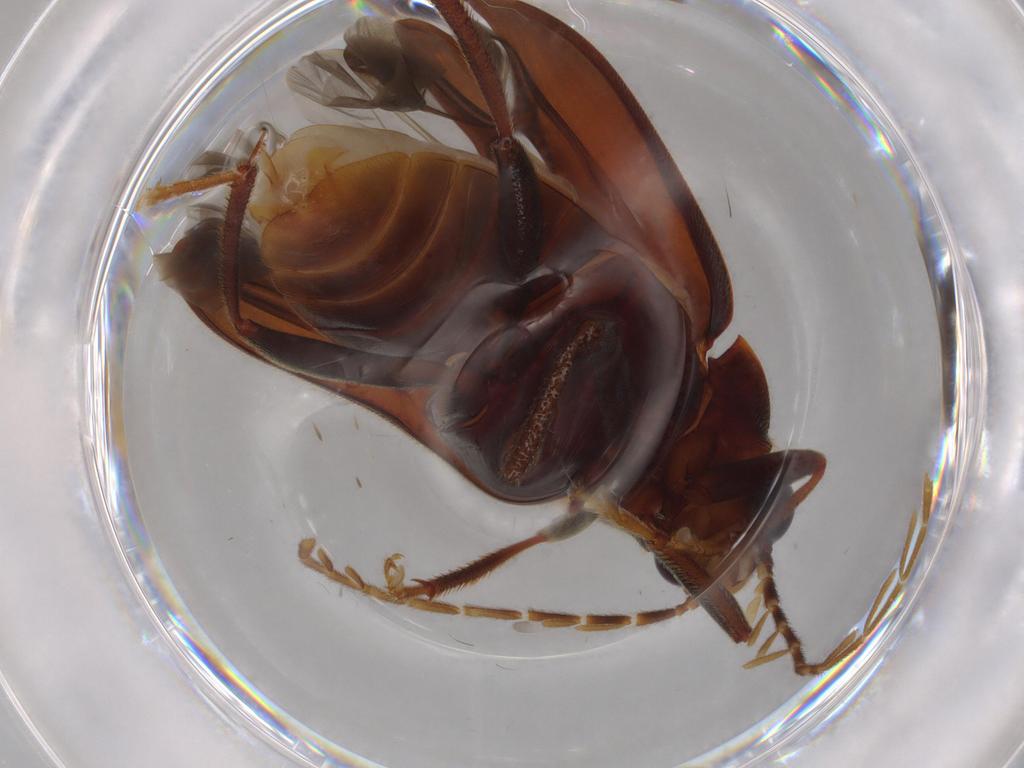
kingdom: Animalia
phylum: Arthropoda
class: Insecta
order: Coleoptera
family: Ptilodactylidae
